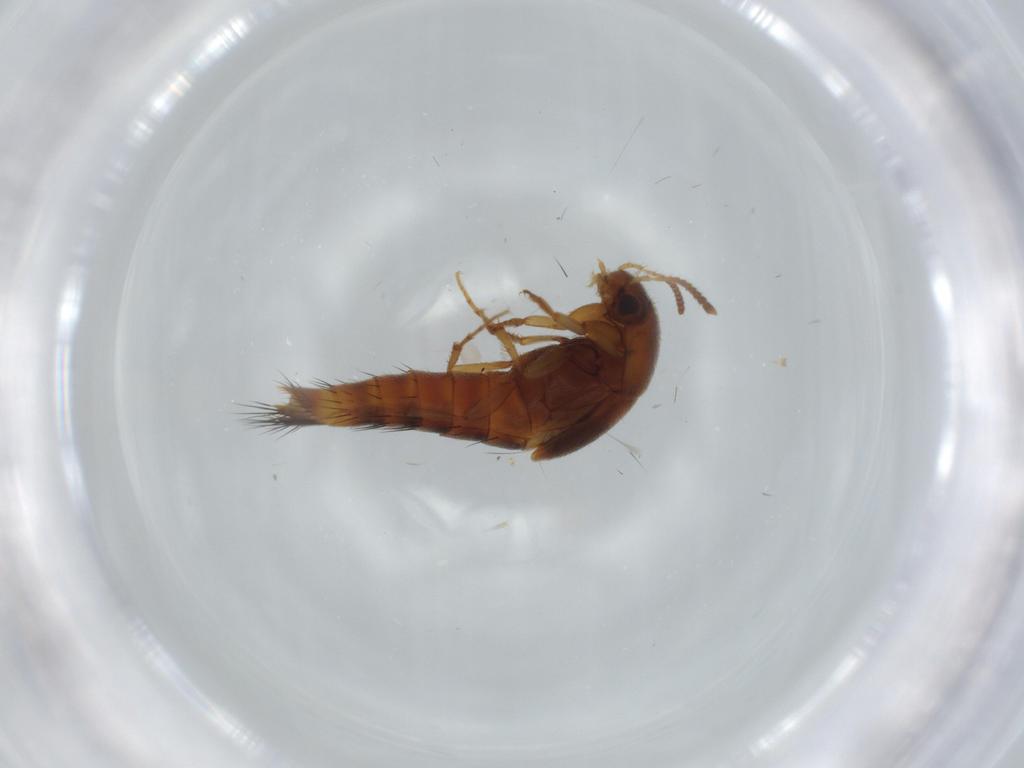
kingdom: Animalia
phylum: Arthropoda
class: Insecta
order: Coleoptera
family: Staphylinidae
